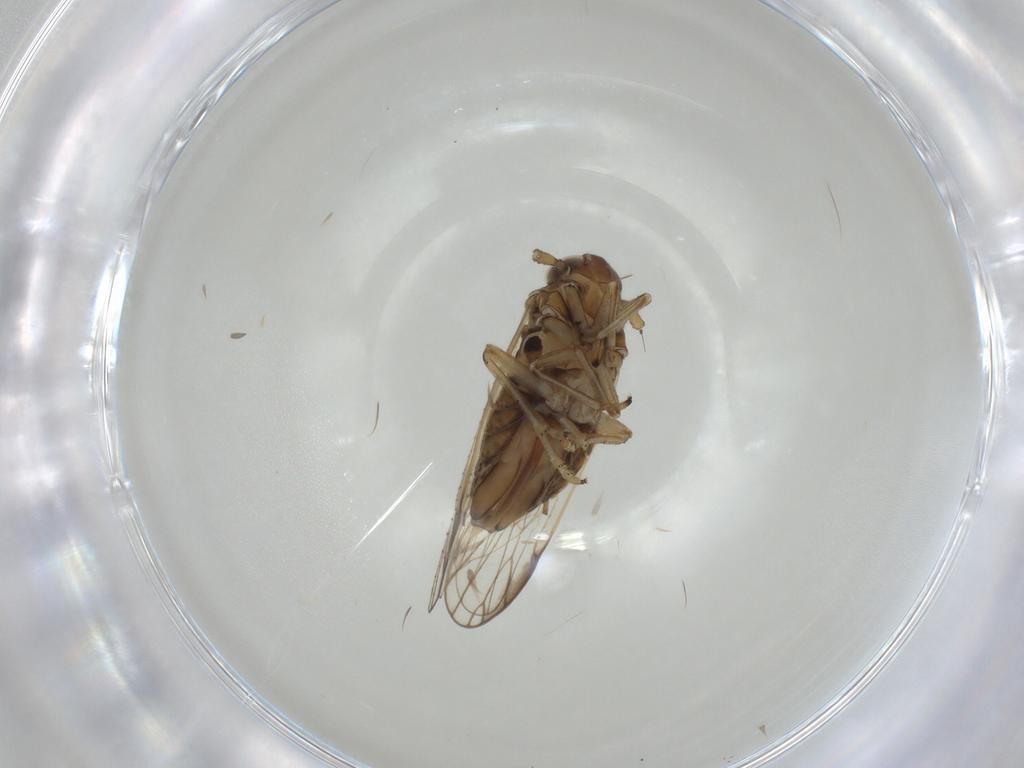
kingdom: Animalia
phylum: Arthropoda
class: Insecta
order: Hemiptera
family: Delphacidae
